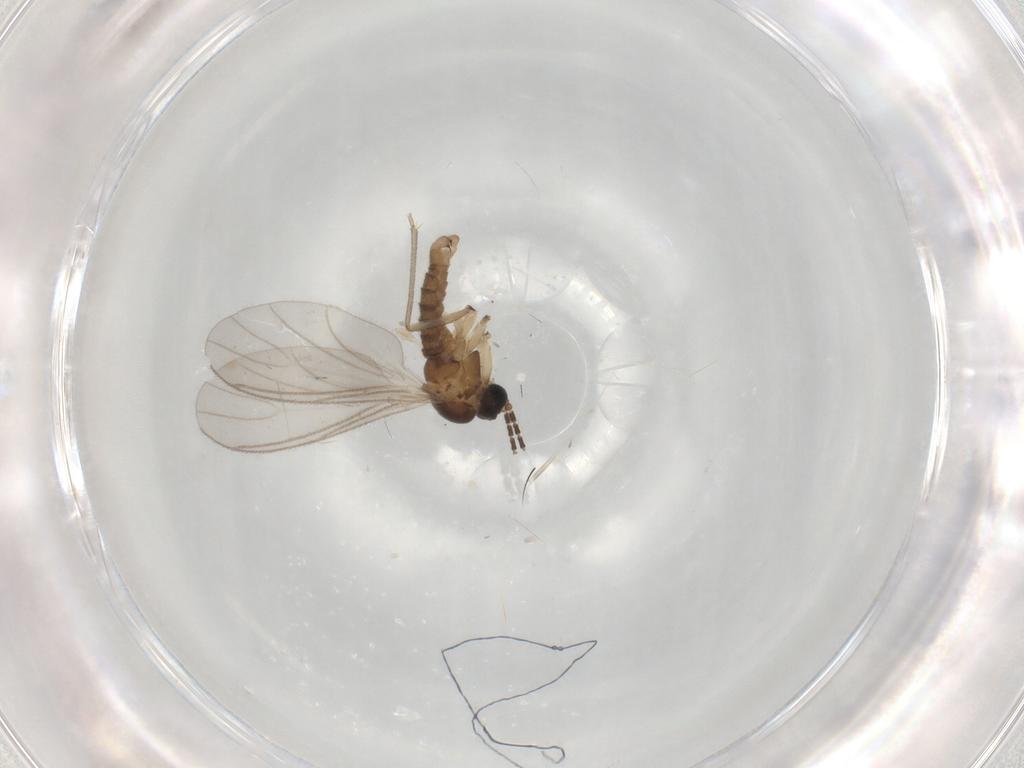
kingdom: Animalia
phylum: Arthropoda
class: Insecta
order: Diptera
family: Sciaridae
